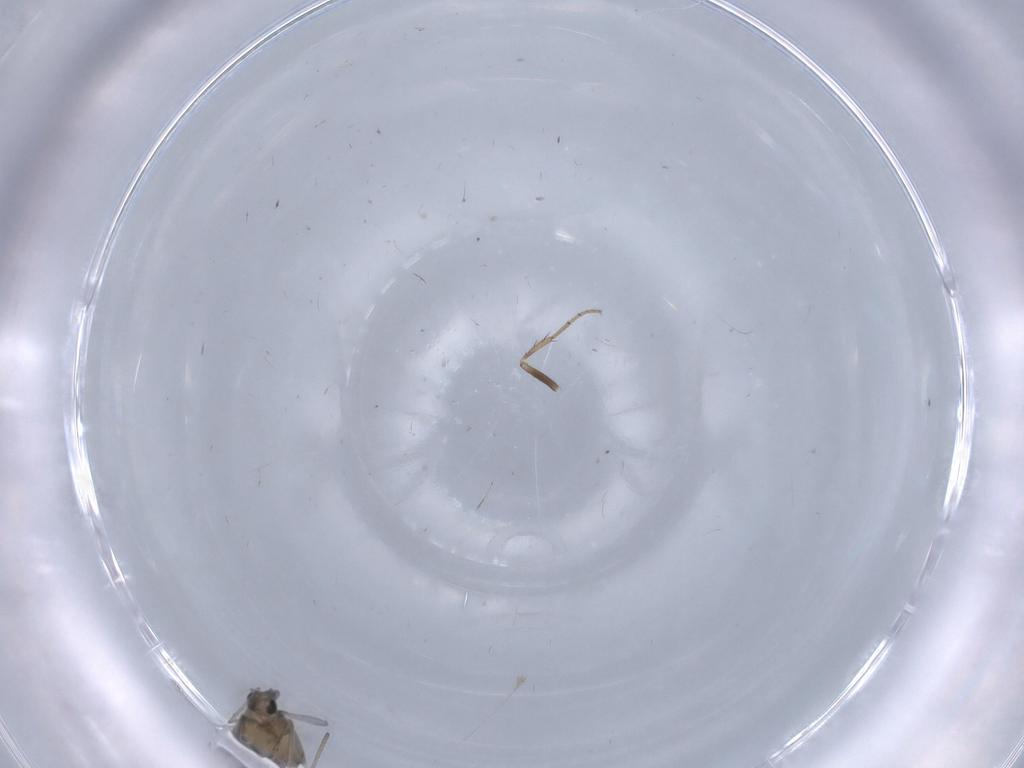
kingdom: Animalia
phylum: Arthropoda
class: Insecta
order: Diptera
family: Chironomidae
